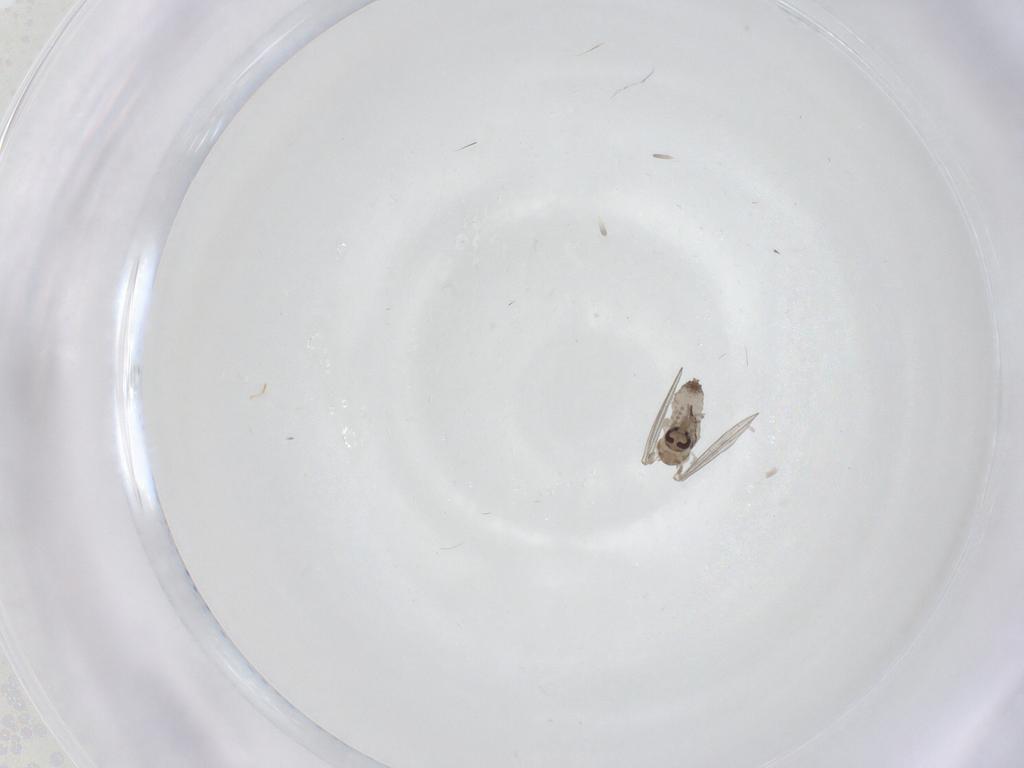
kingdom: Animalia
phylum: Arthropoda
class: Insecta
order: Diptera
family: Psychodidae
